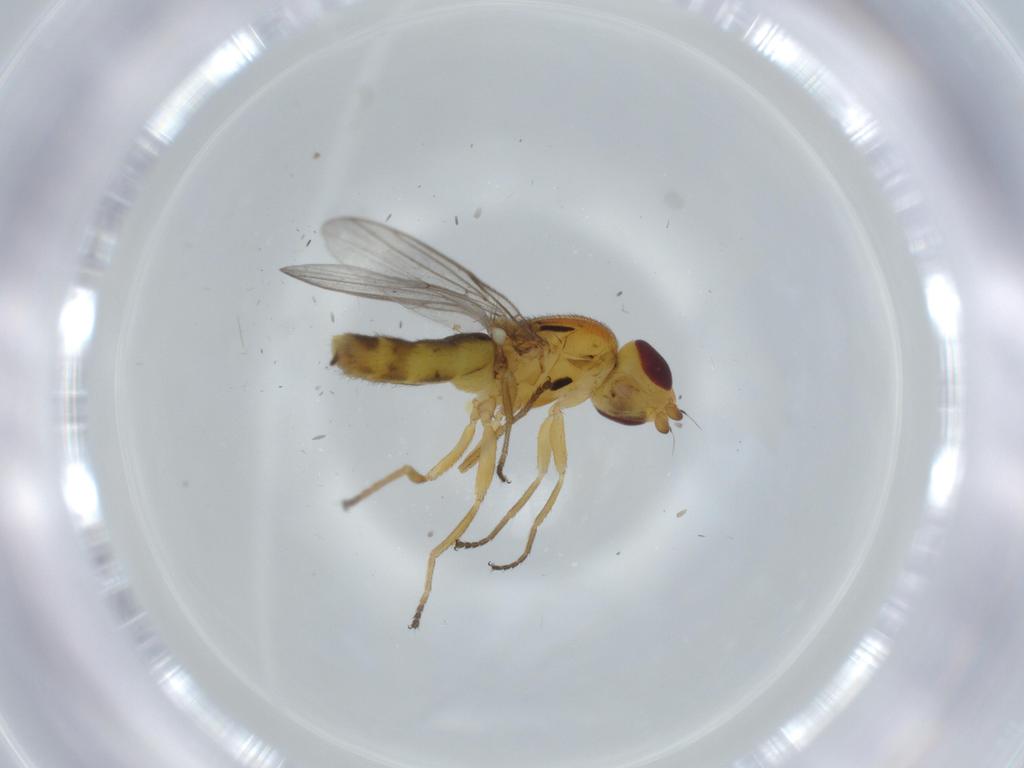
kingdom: Animalia
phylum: Arthropoda
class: Insecta
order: Diptera
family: Chloropidae
